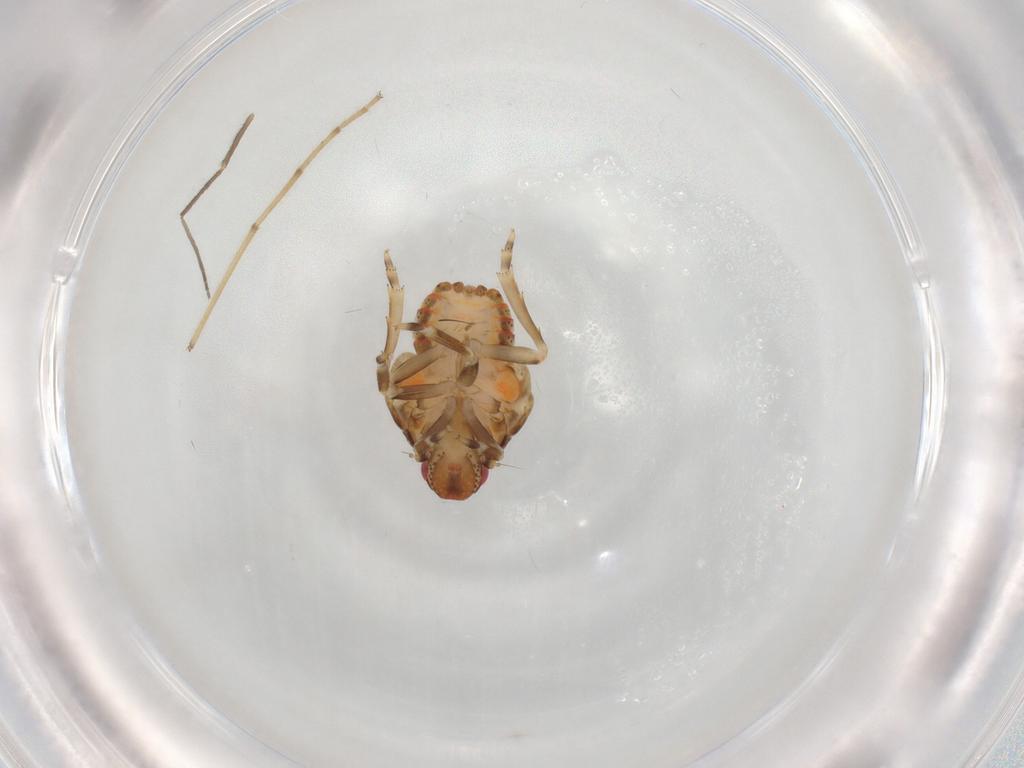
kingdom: Animalia
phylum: Arthropoda
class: Insecta
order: Hemiptera
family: Flatidae
